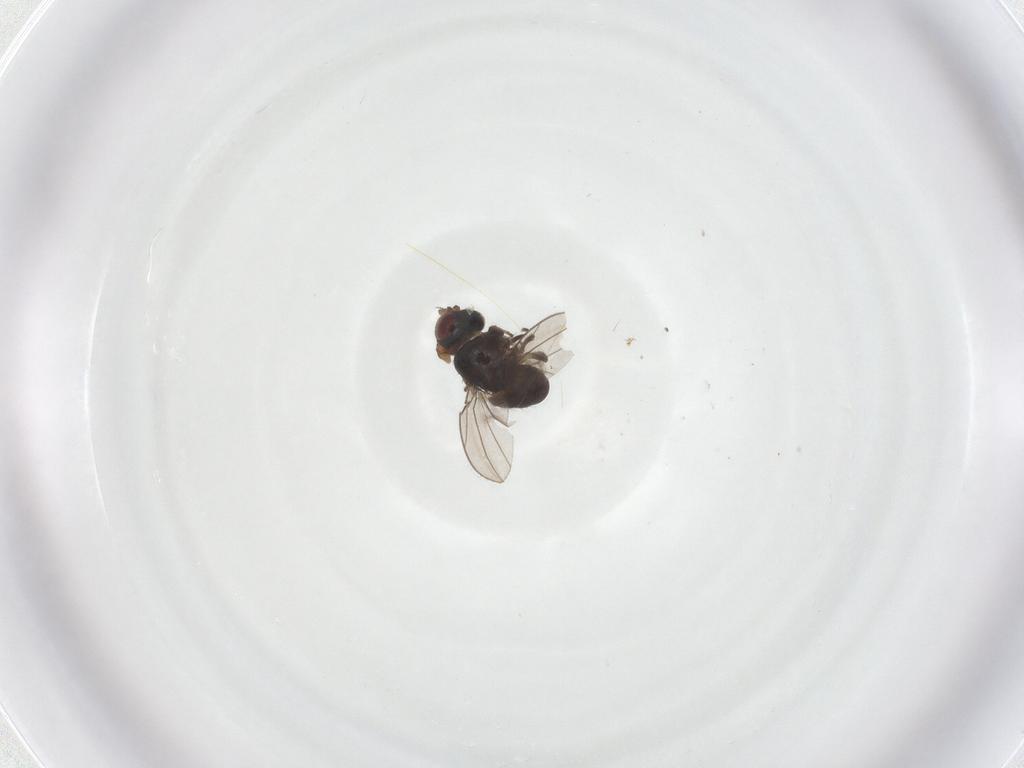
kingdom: Animalia
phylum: Arthropoda
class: Insecta
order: Diptera
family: Ephydridae
